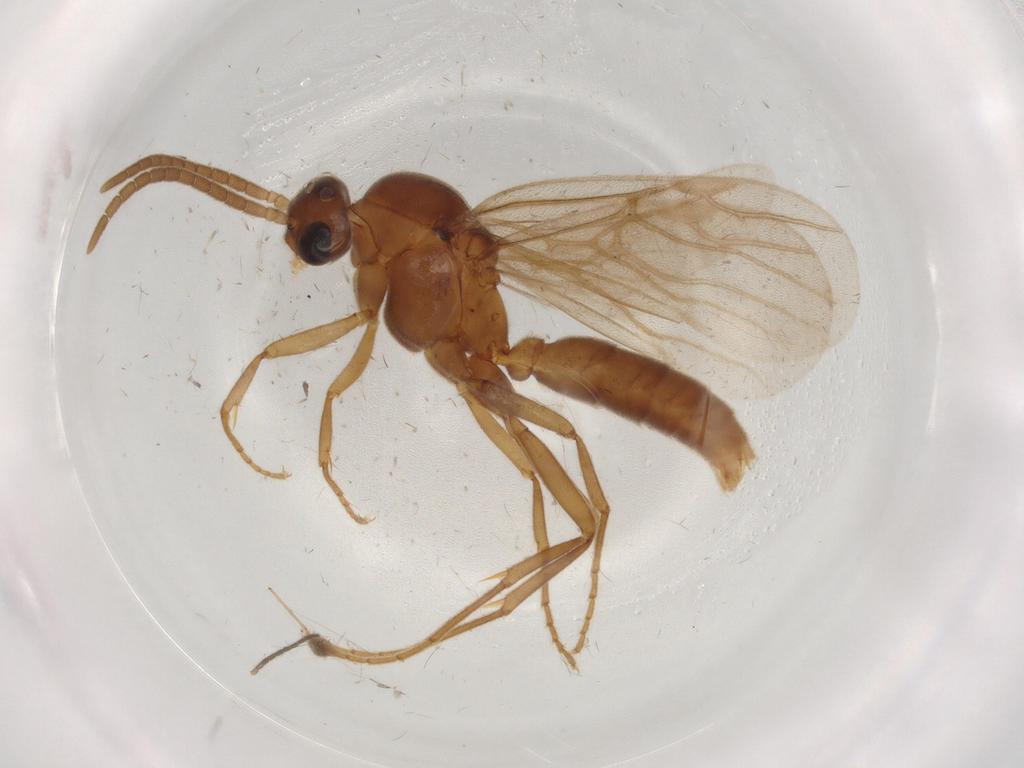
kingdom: Animalia
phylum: Arthropoda
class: Insecta
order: Hymenoptera
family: Formicidae
